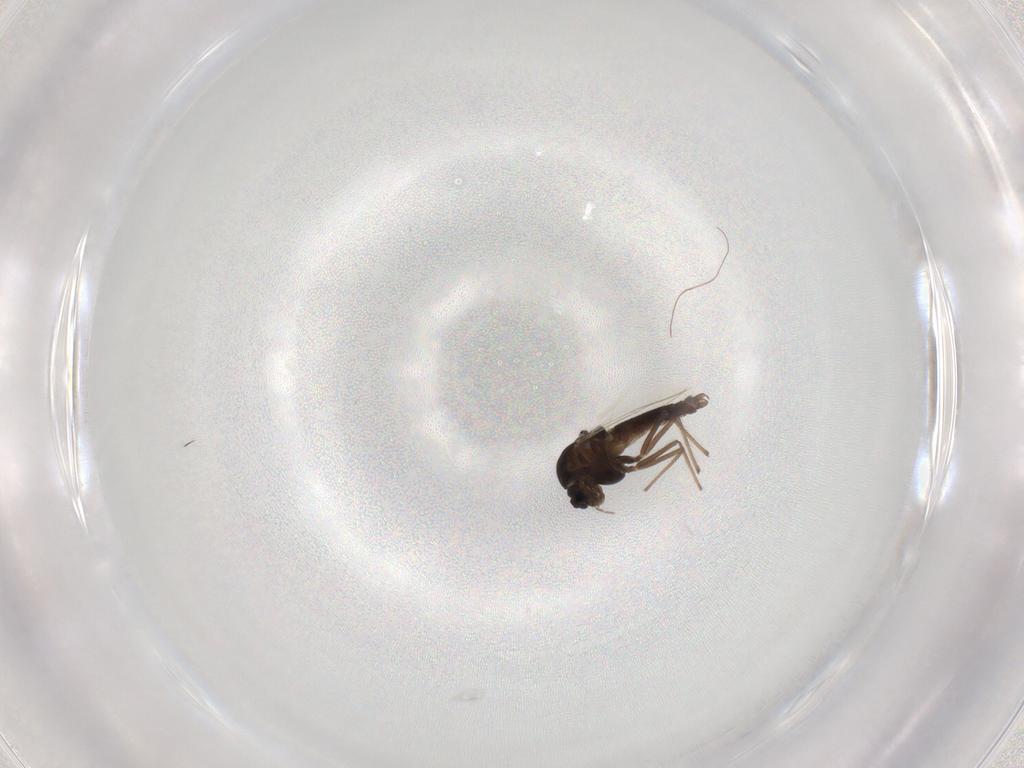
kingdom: Animalia
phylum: Arthropoda
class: Insecta
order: Diptera
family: Chironomidae
